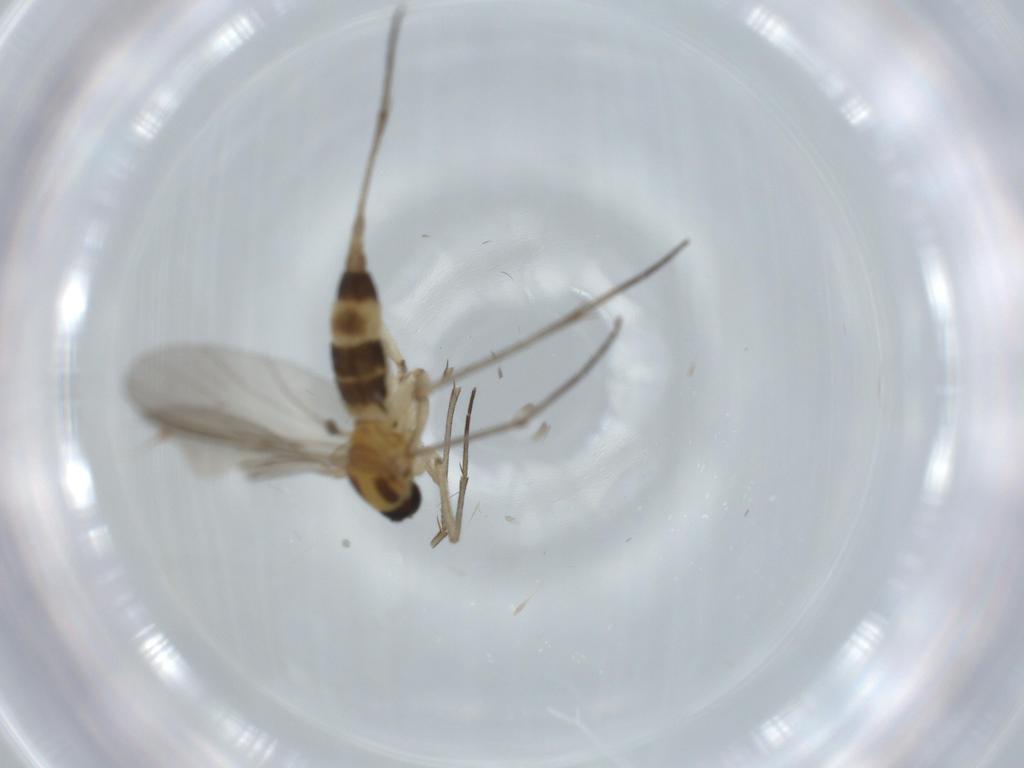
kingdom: Animalia
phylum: Arthropoda
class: Insecta
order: Diptera
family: Sciaridae
